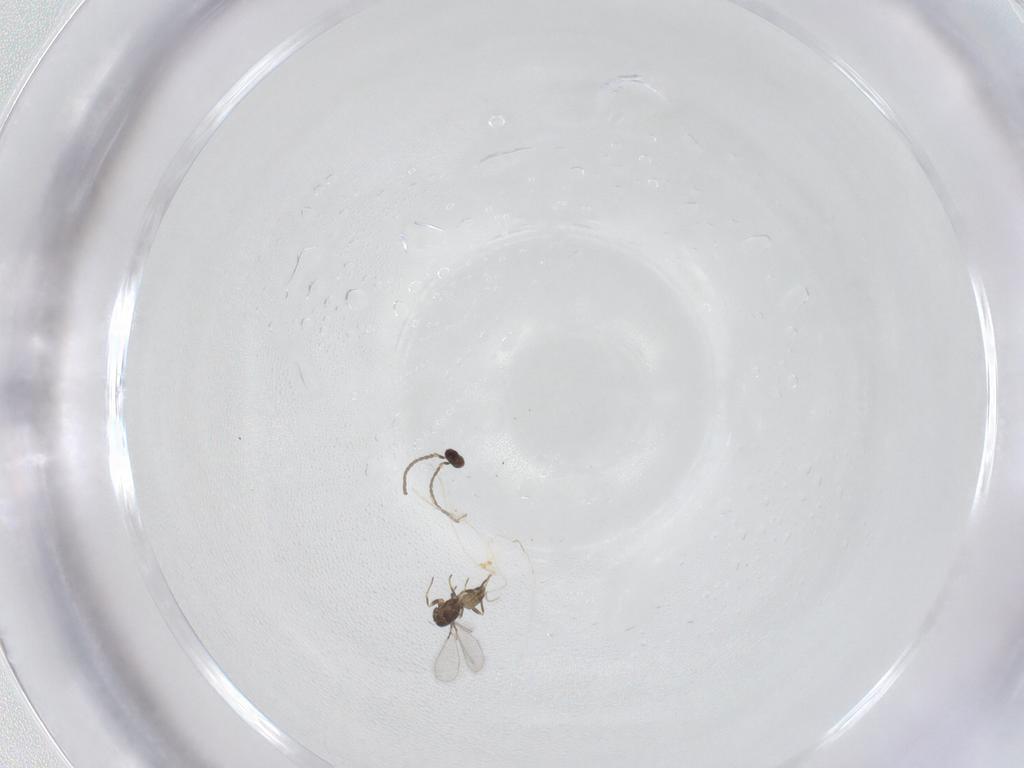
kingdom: Animalia
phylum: Arthropoda
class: Insecta
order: Hymenoptera
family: Mymaridae
